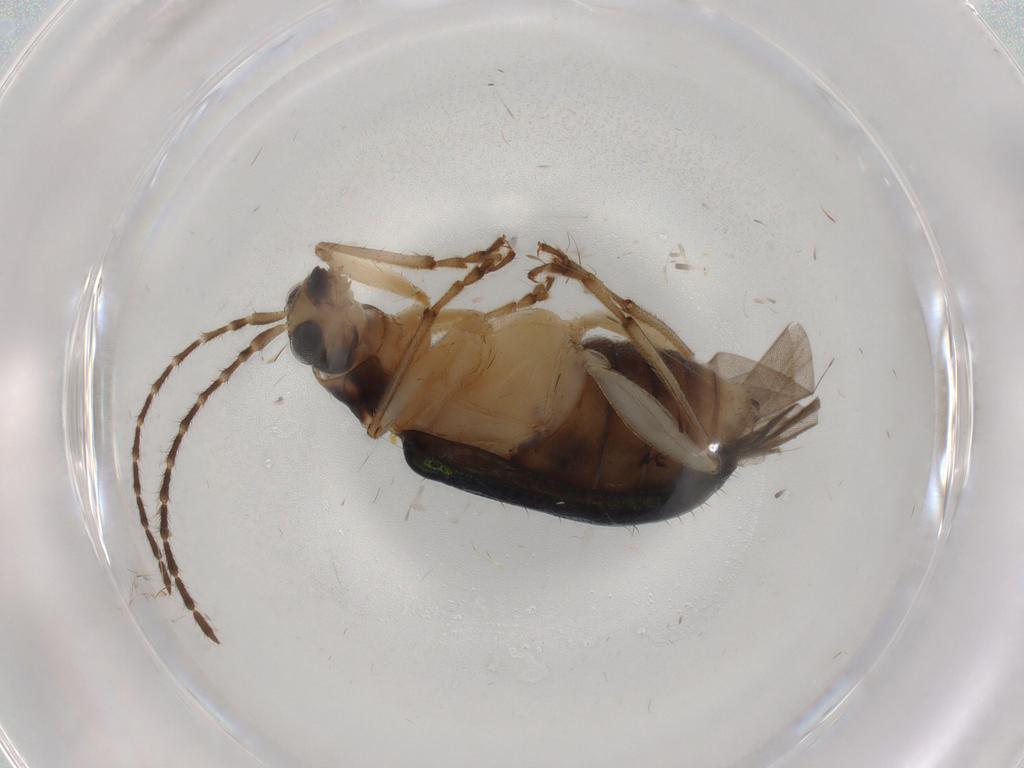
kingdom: Animalia
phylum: Arthropoda
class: Insecta
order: Coleoptera
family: Chrysomelidae
